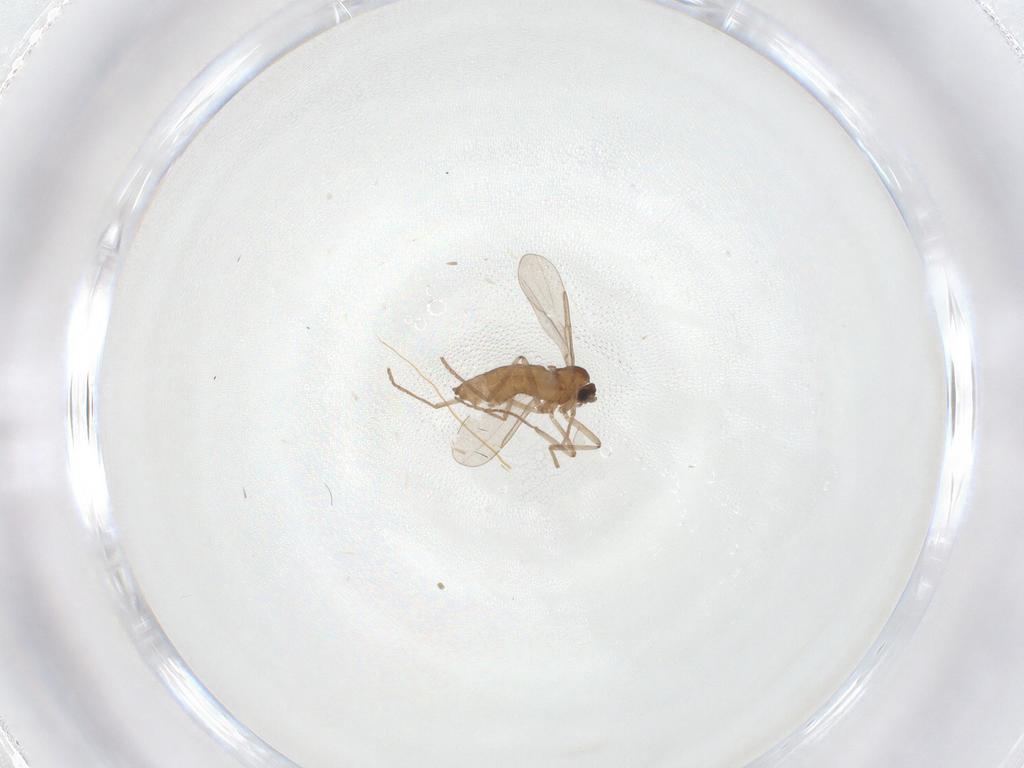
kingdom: Animalia
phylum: Arthropoda
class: Insecta
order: Diptera
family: Cecidomyiidae
